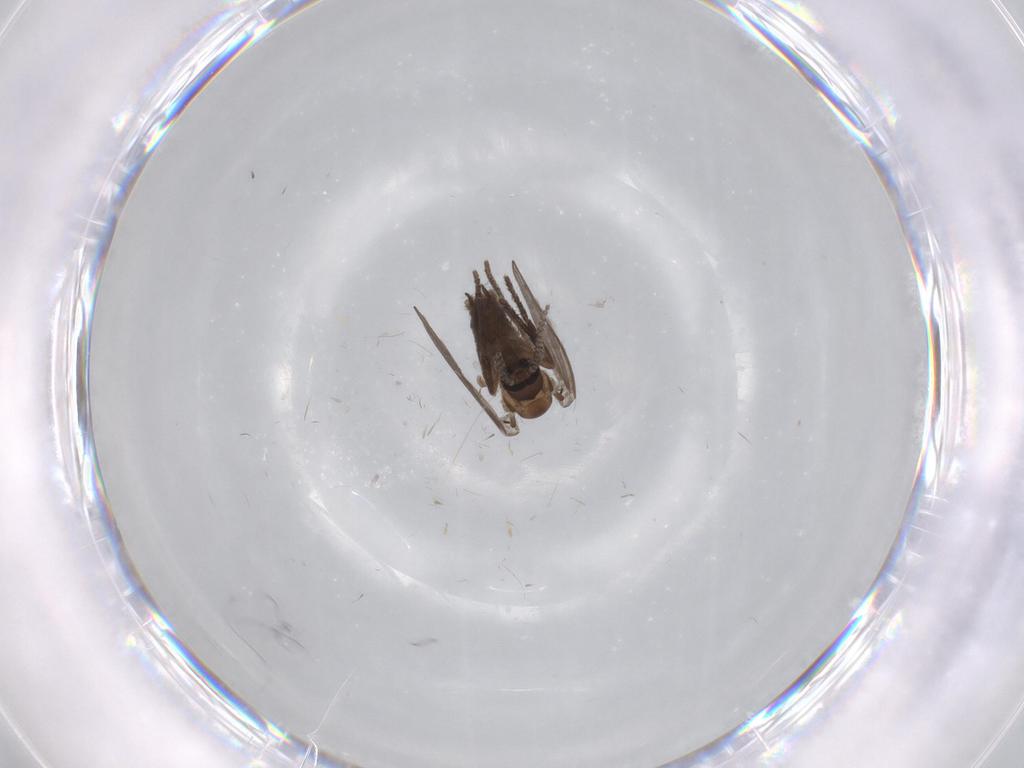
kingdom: Animalia
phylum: Arthropoda
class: Insecta
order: Diptera
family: Psychodidae
